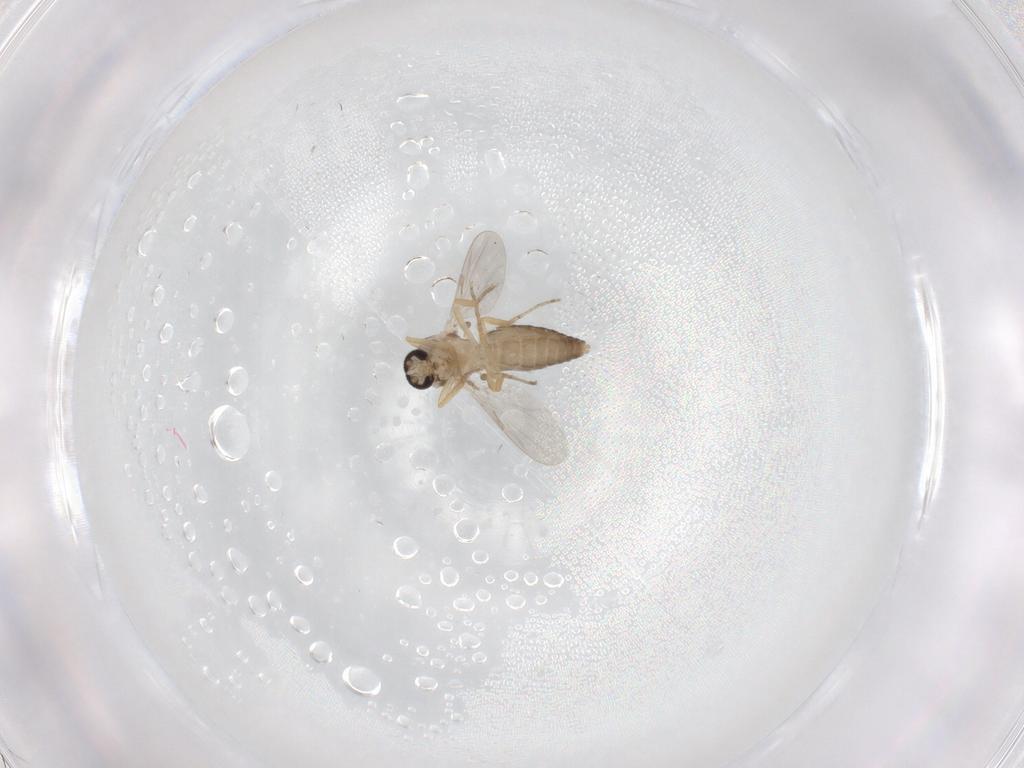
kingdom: Animalia
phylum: Arthropoda
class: Insecta
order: Diptera
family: Ceratopogonidae
